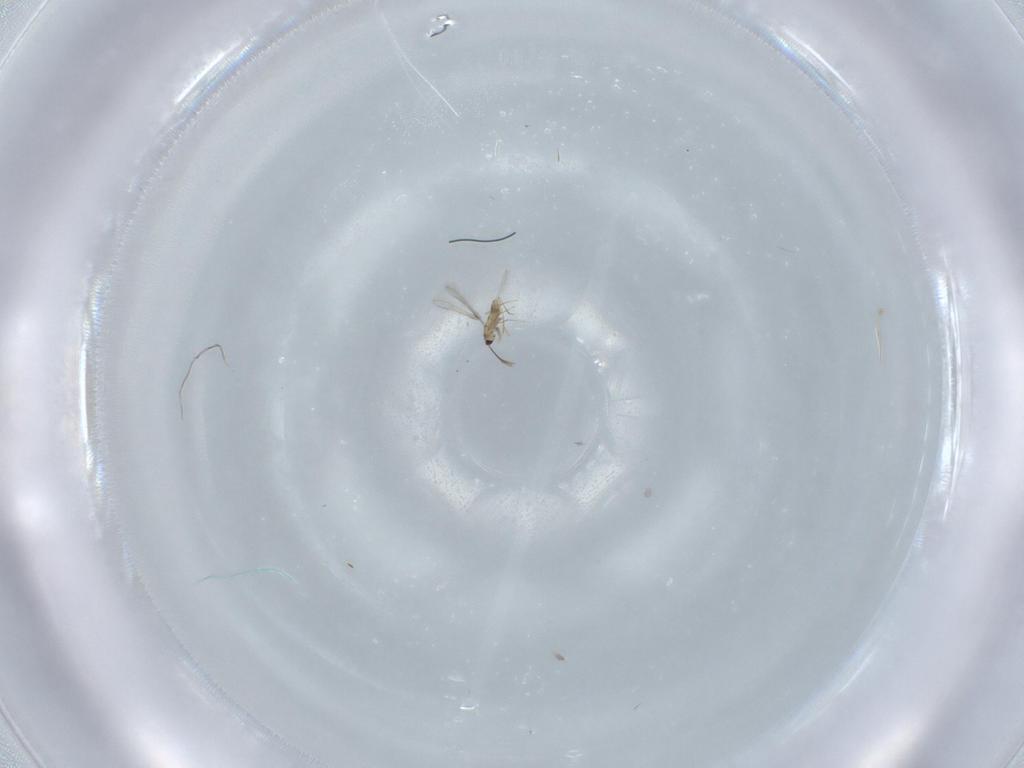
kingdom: Animalia
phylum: Arthropoda
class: Insecta
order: Hymenoptera
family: Mymaridae
